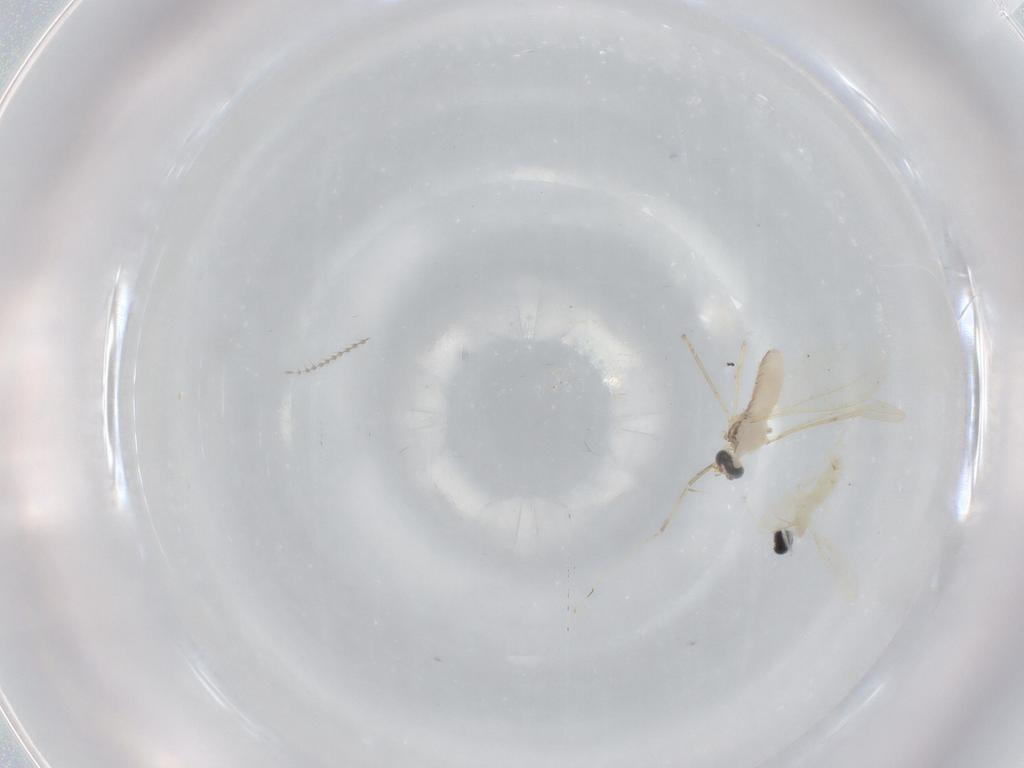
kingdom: Animalia
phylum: Arthropoda
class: Insecta
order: Diptera
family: Cecidomyiidae
